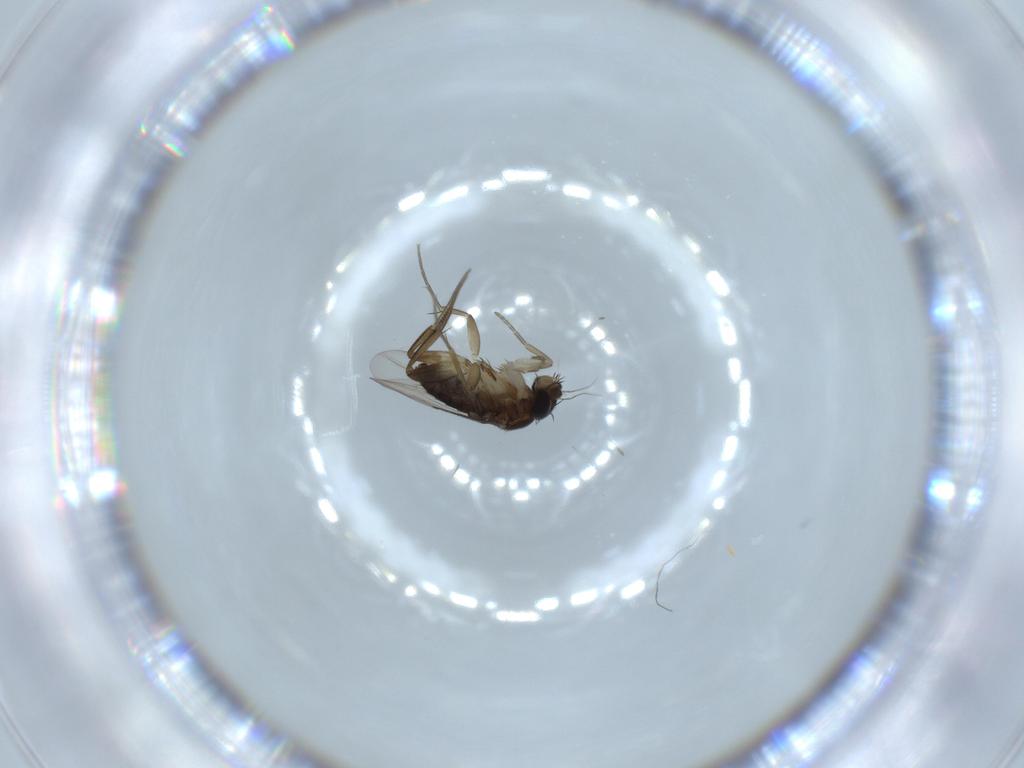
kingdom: Animalia
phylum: Arthropoda
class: Insecta
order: Diptera
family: Phoridae
